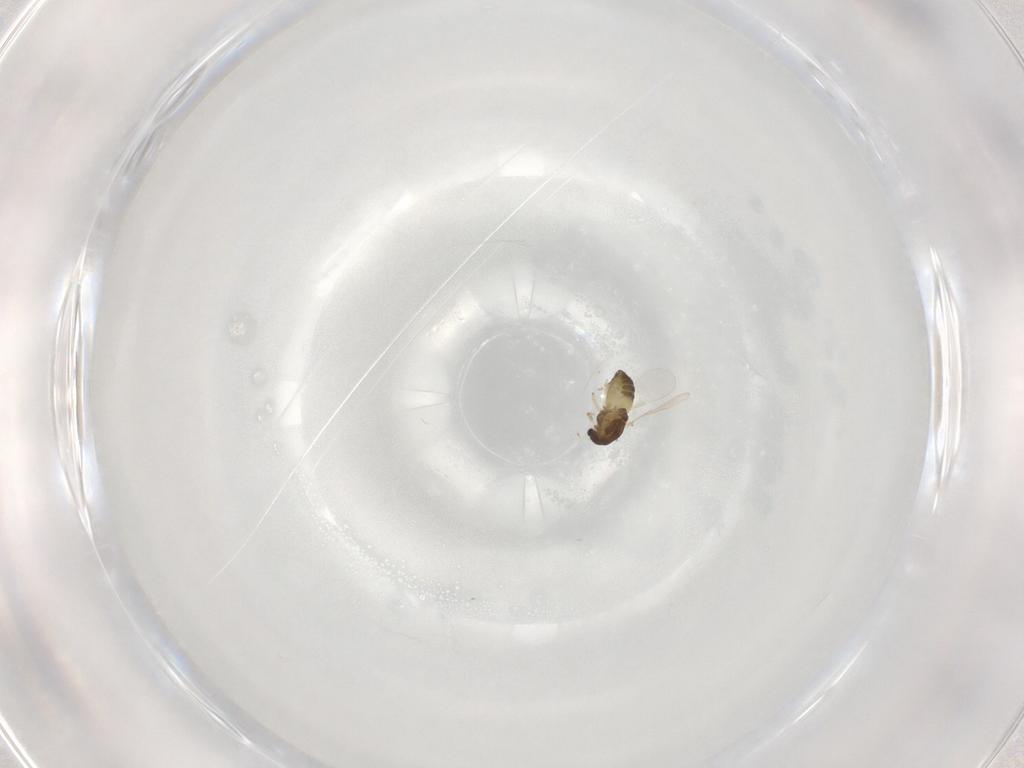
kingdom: Animalia
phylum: Arthropoda
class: Insecta
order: Diptera
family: Chironomidae
